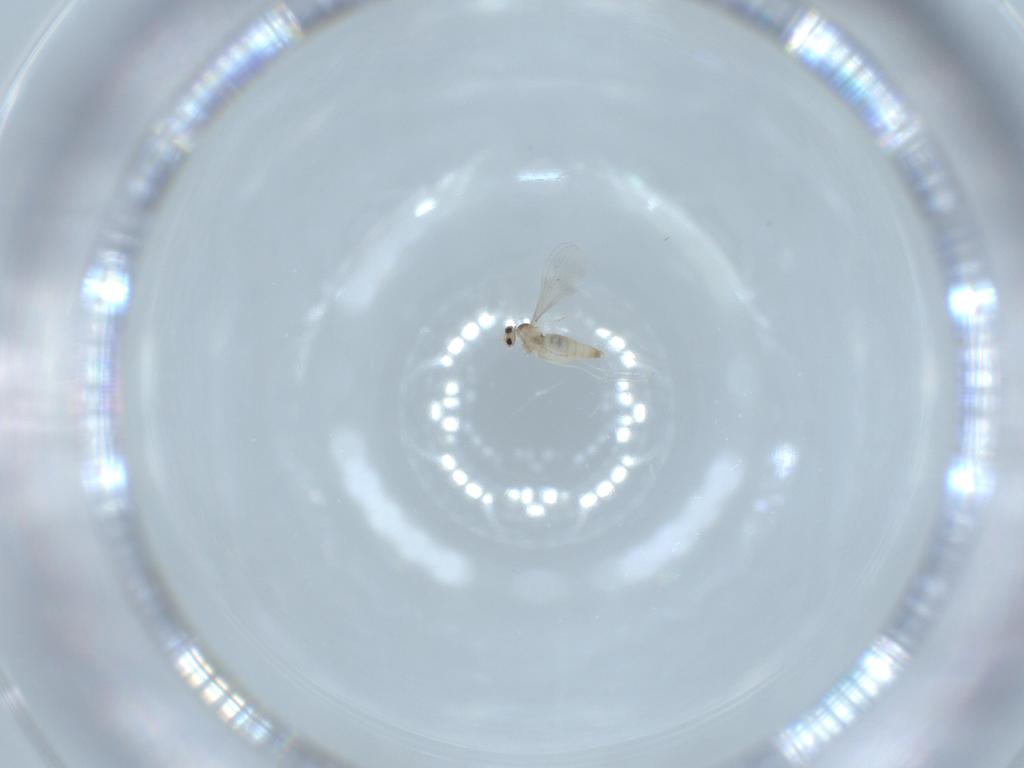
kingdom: Animalia
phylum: Arthropoda
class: Insecta
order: Diptera
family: Cecidomyiidae
